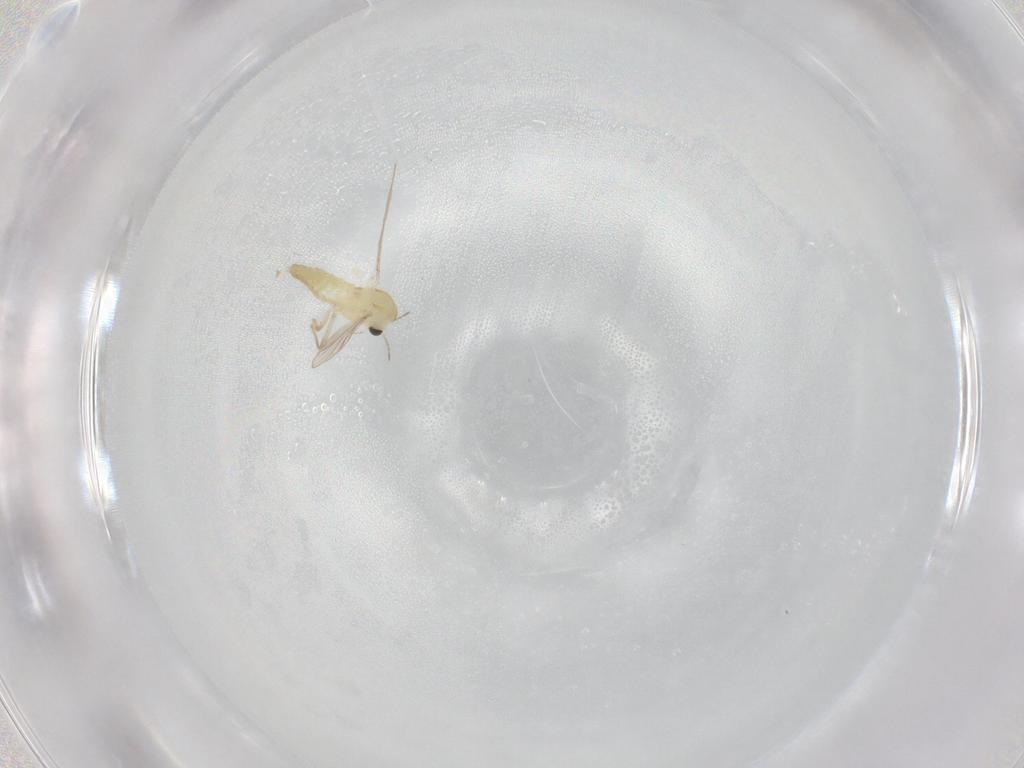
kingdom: Animalia
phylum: Arthropoda
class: Insecta
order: Diptera
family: Chironomidae
